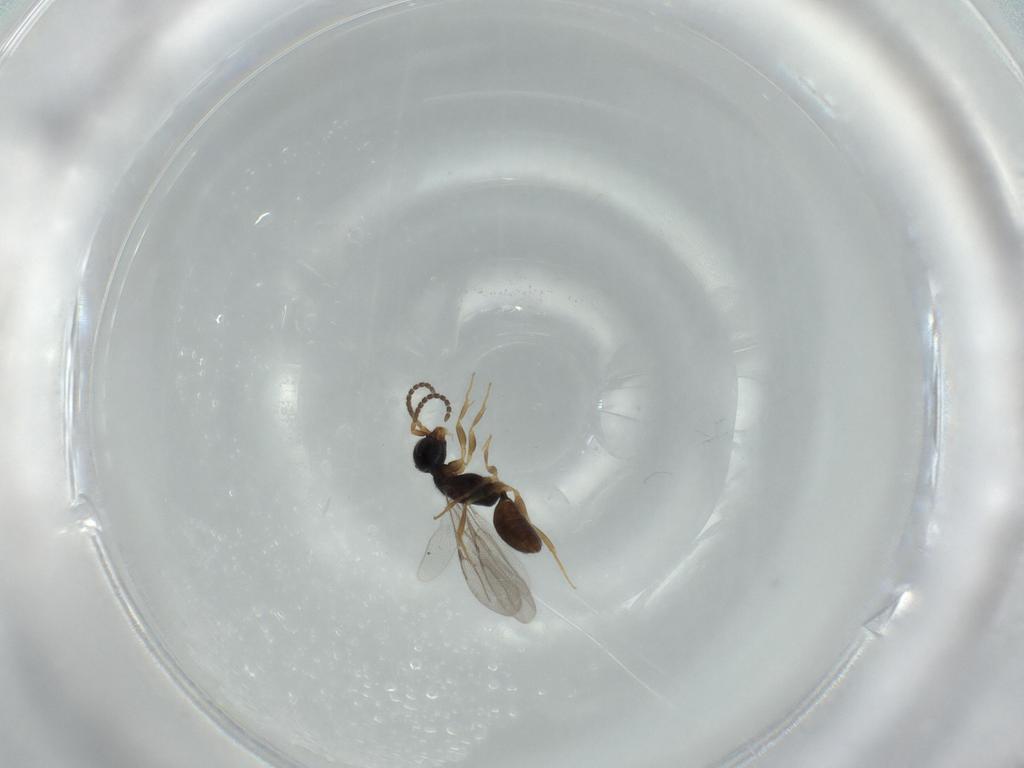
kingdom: Animalia
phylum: Arthropoda
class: Insecta
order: Hymenoptera
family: Bethylidae
